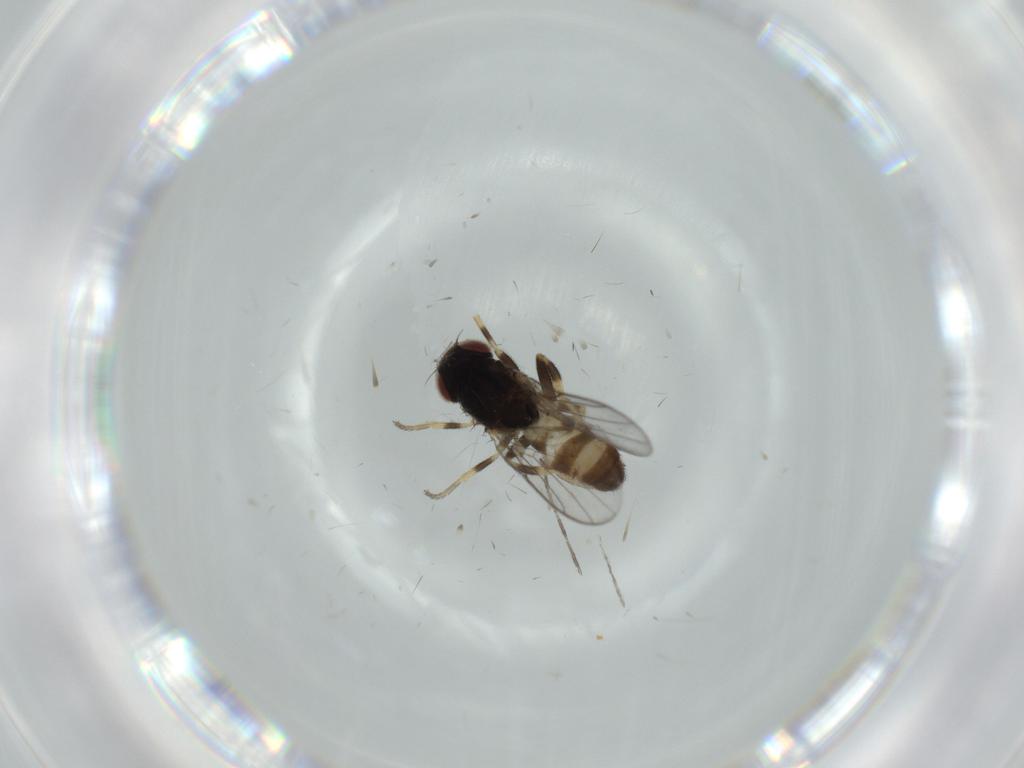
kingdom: Animalia
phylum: Arthropoda
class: Insecta
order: Diptera
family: Chloropidae
